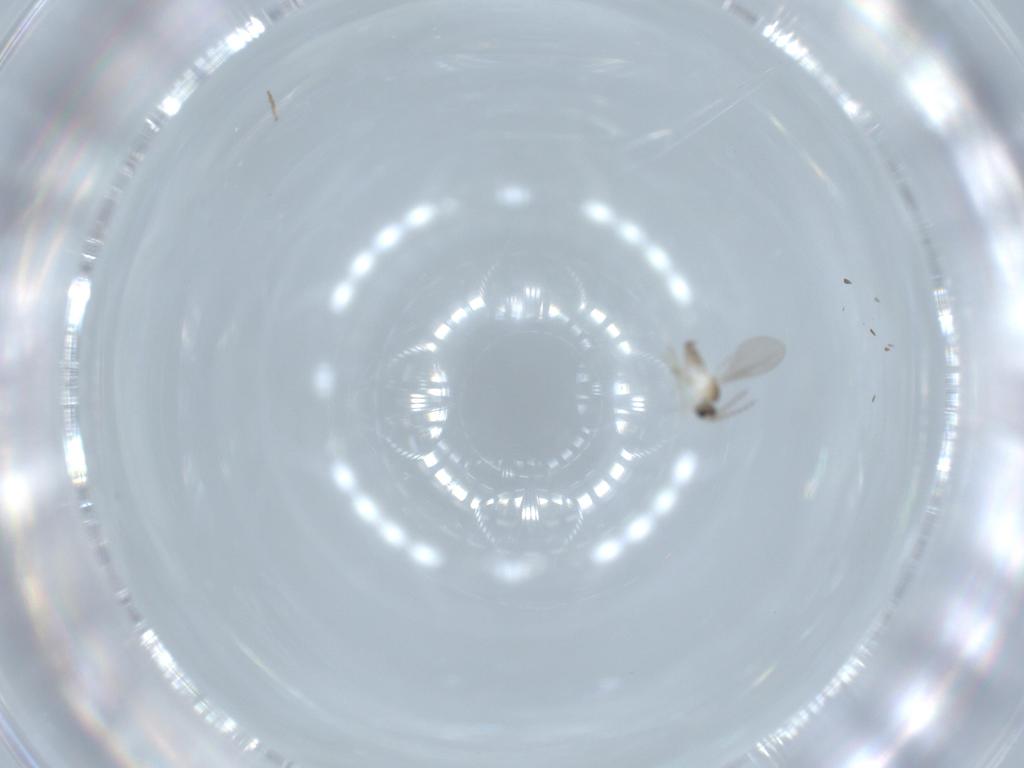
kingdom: Animalia
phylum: Arthropoda
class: Insecta
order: Diptera
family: Cecidomyiidae
